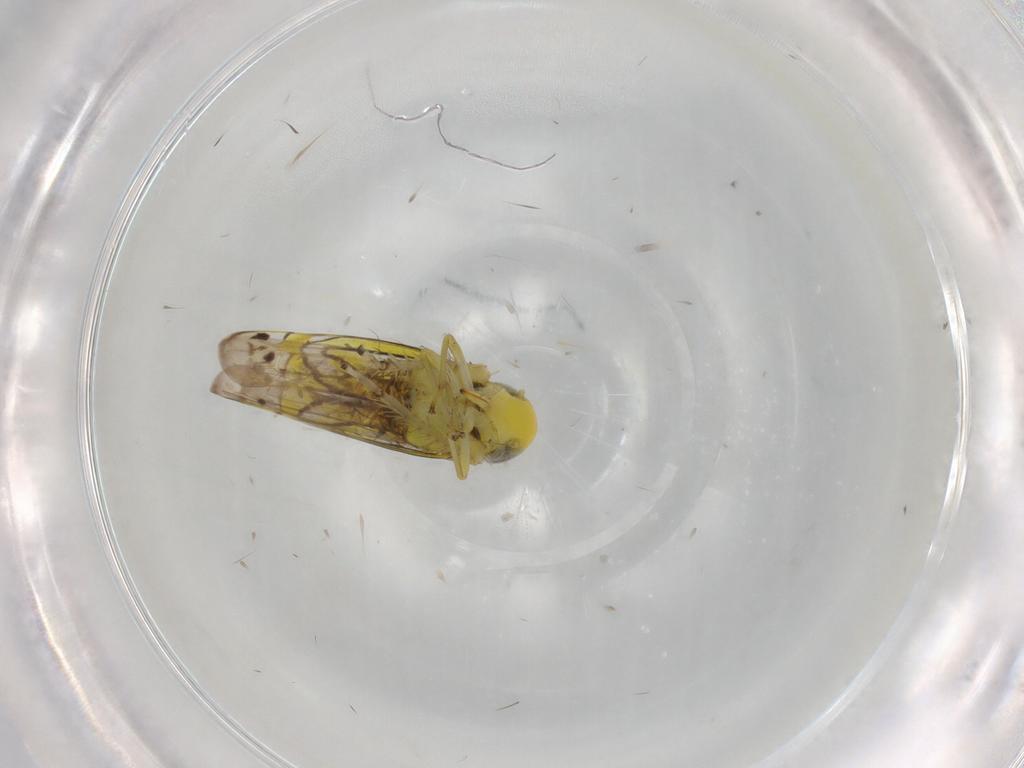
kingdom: Animalia
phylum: Arthropoda
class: Insecta
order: Hemiptera
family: Cicadellidae
